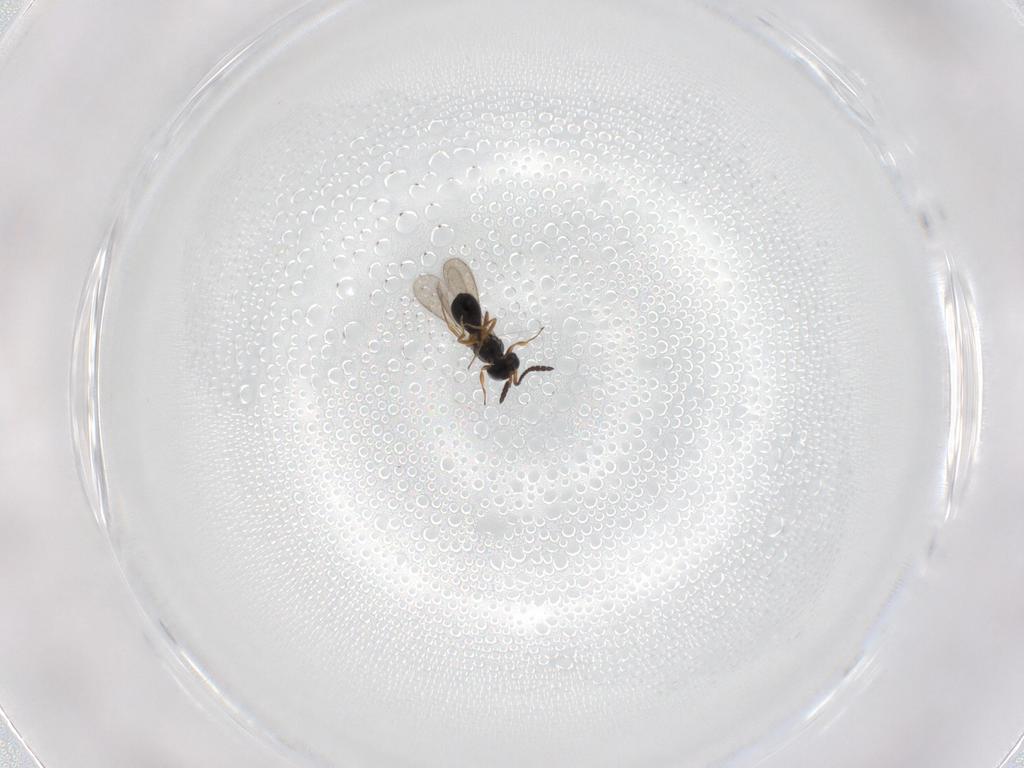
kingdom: Animalia
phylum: Arthropoda
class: Insecta
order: Hymenoptera
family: Scelionidae
